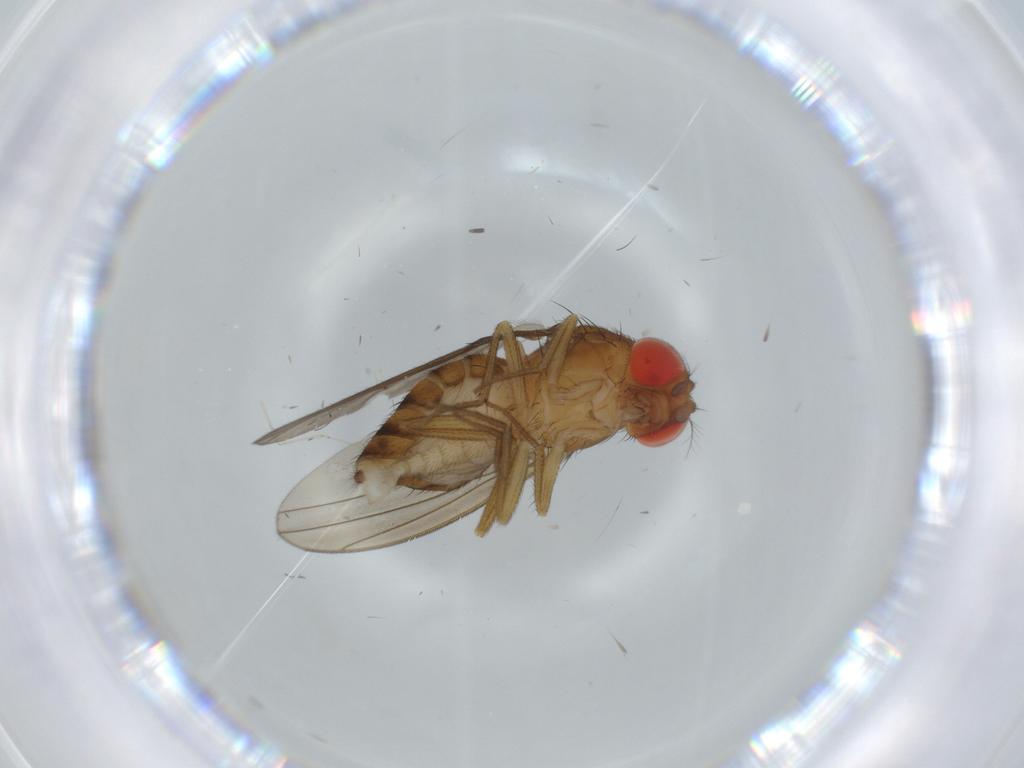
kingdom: Animalia
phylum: Arthropoda
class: Insecta
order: Diptera
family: Drosophilidae
